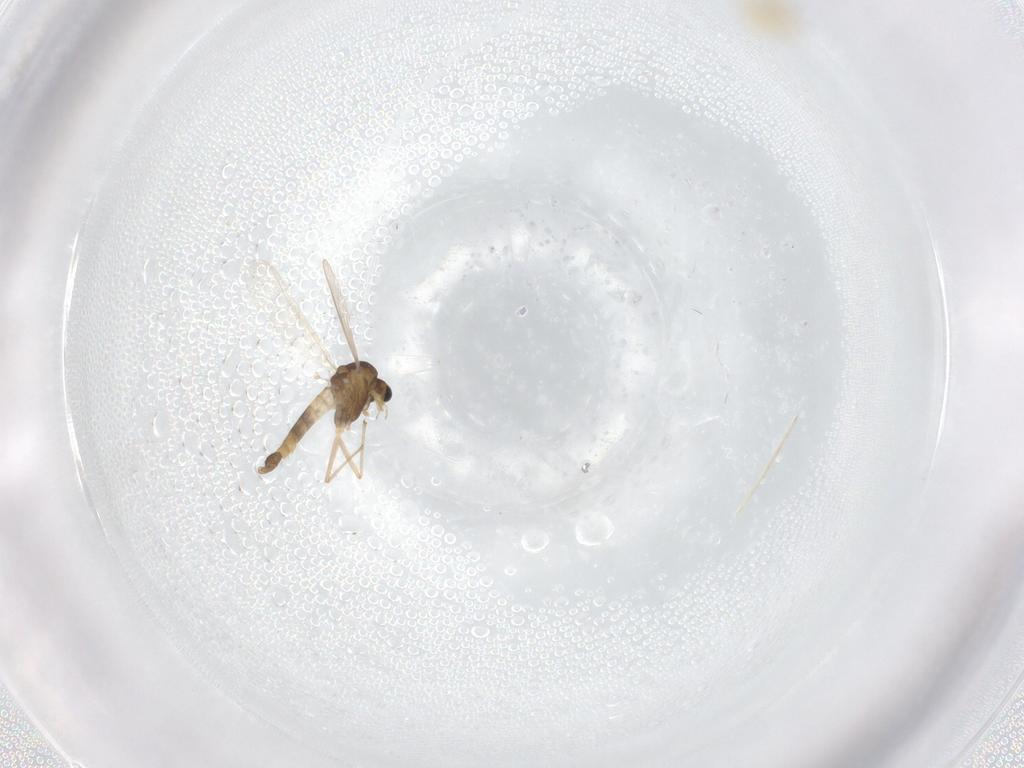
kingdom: Animalia
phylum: Arthropoda
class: Insecta
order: Diptera
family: Chironomidae
